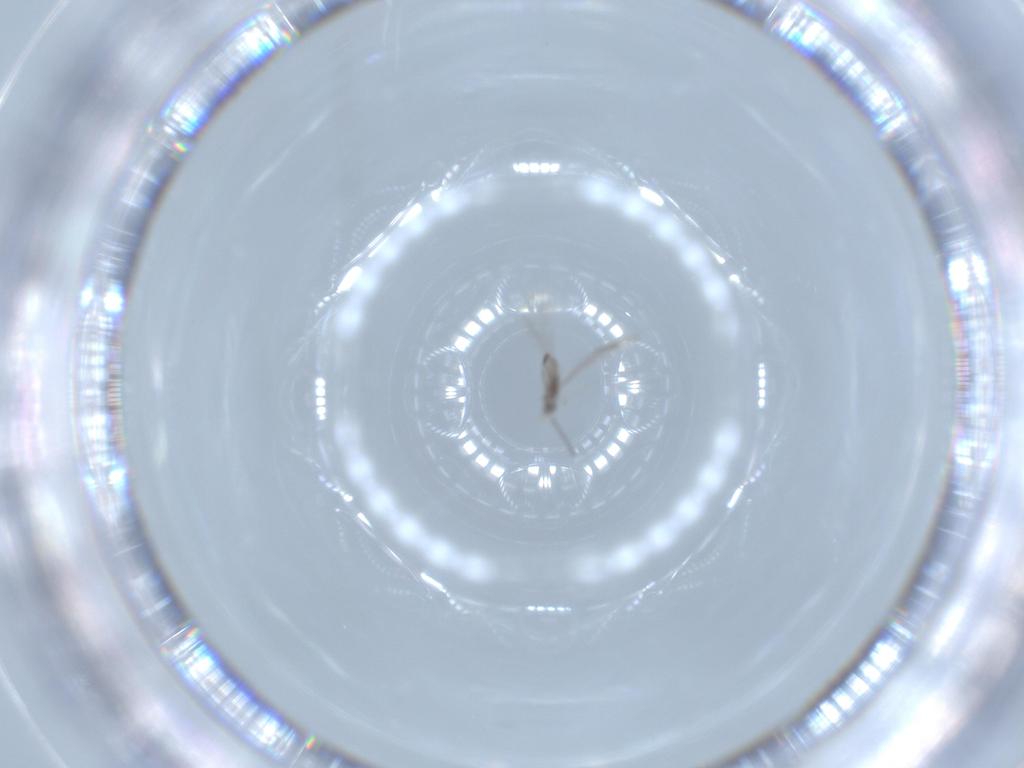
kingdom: Animalia
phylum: Arthropoda
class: Insecta
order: Diptera
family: Cecidomyiidae
